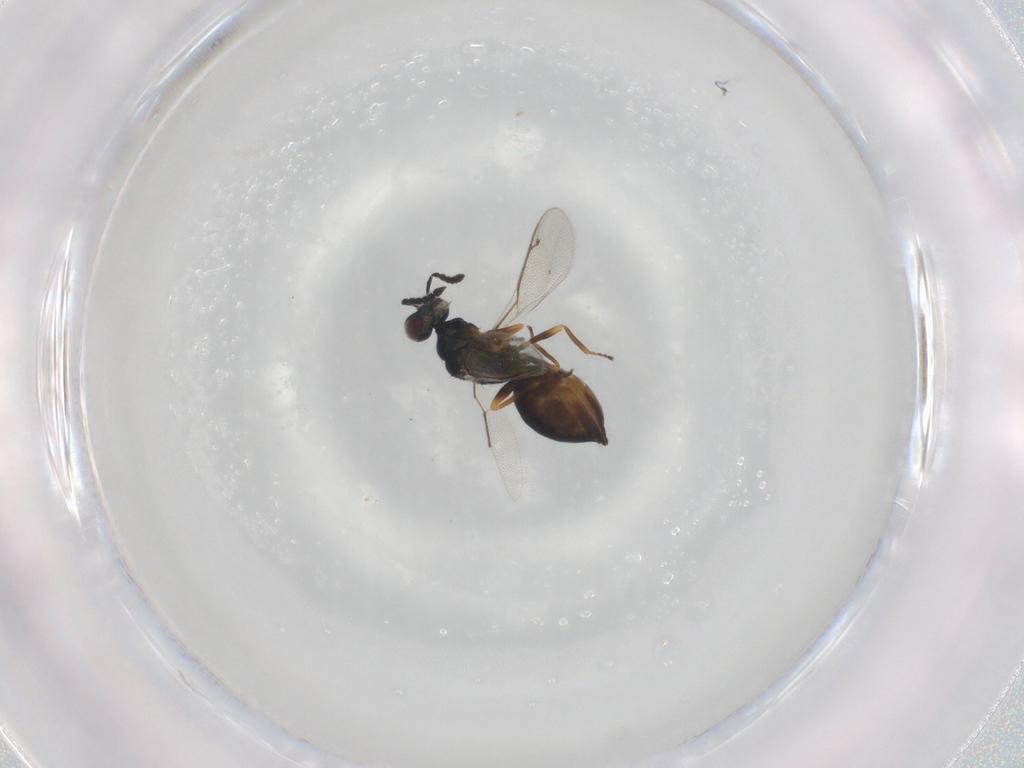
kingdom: Animalia
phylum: Arthropoda
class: Insecta
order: Hymenoptera
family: Eulophidae
